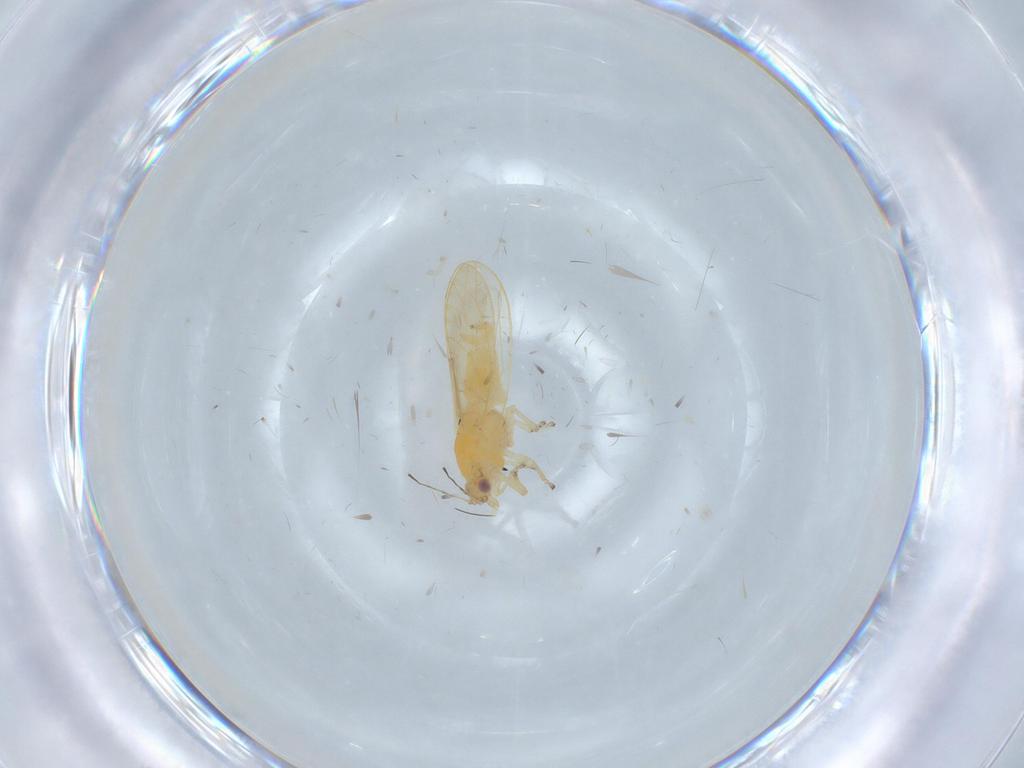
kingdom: Animalia
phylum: Arthropoda
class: Insecta
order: Hemiptera
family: Triozidae
